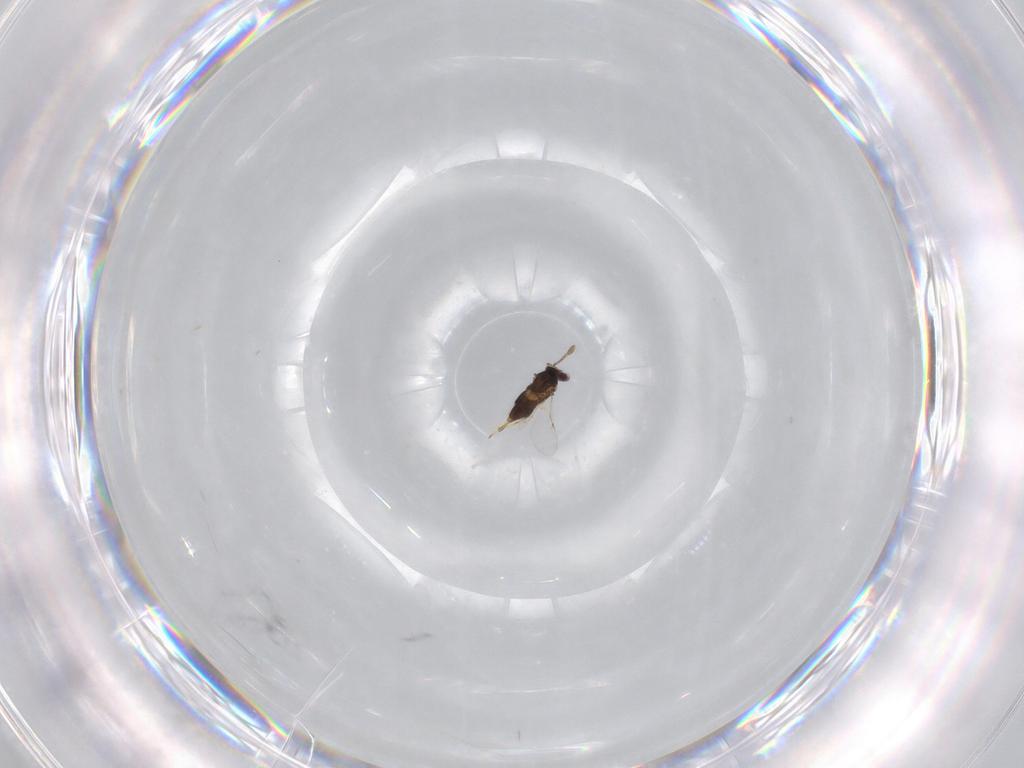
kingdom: Animalia
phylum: Arthropoda
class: Insecta
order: Hymenoptera
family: Encyrtidae
